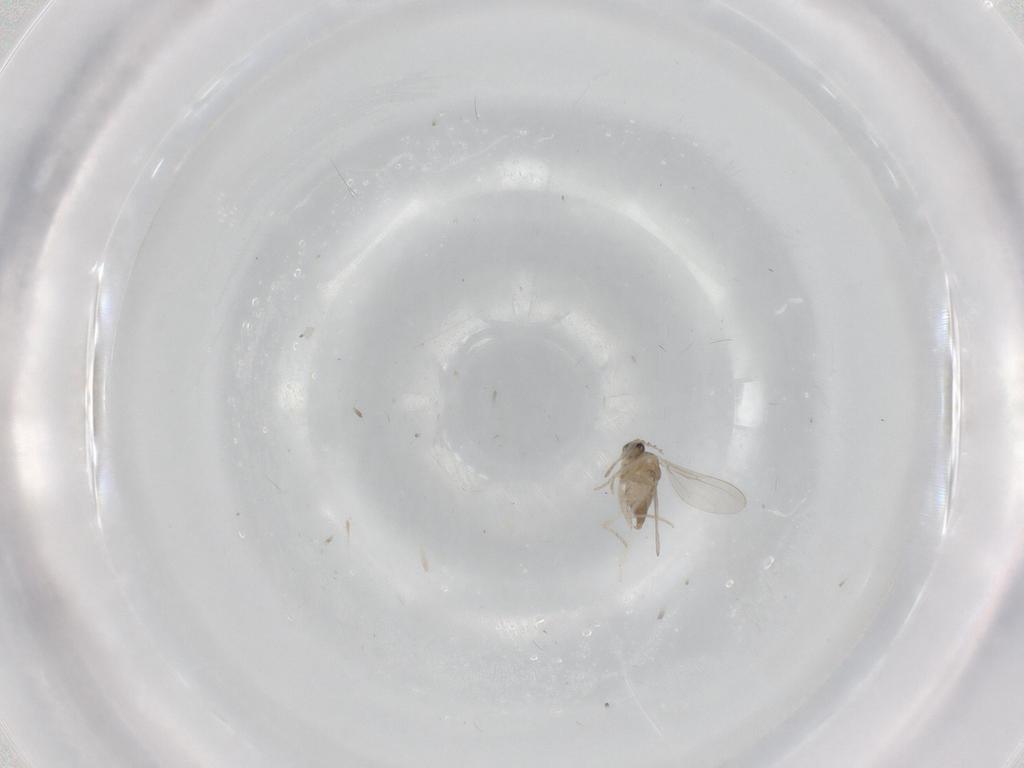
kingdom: Animalia
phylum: Arthropoda
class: Insecta
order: Diptera
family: Cecidomyiidae
